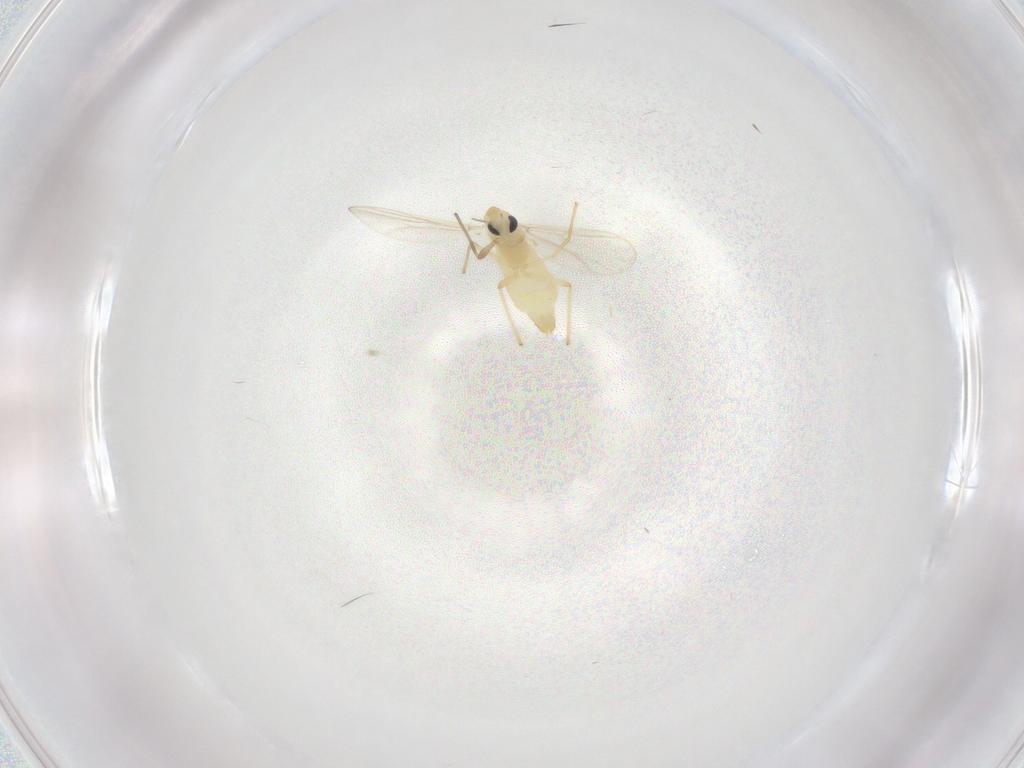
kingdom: Animalia
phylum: Arthropoda
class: Insecta
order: Diptera
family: Chironomidae
